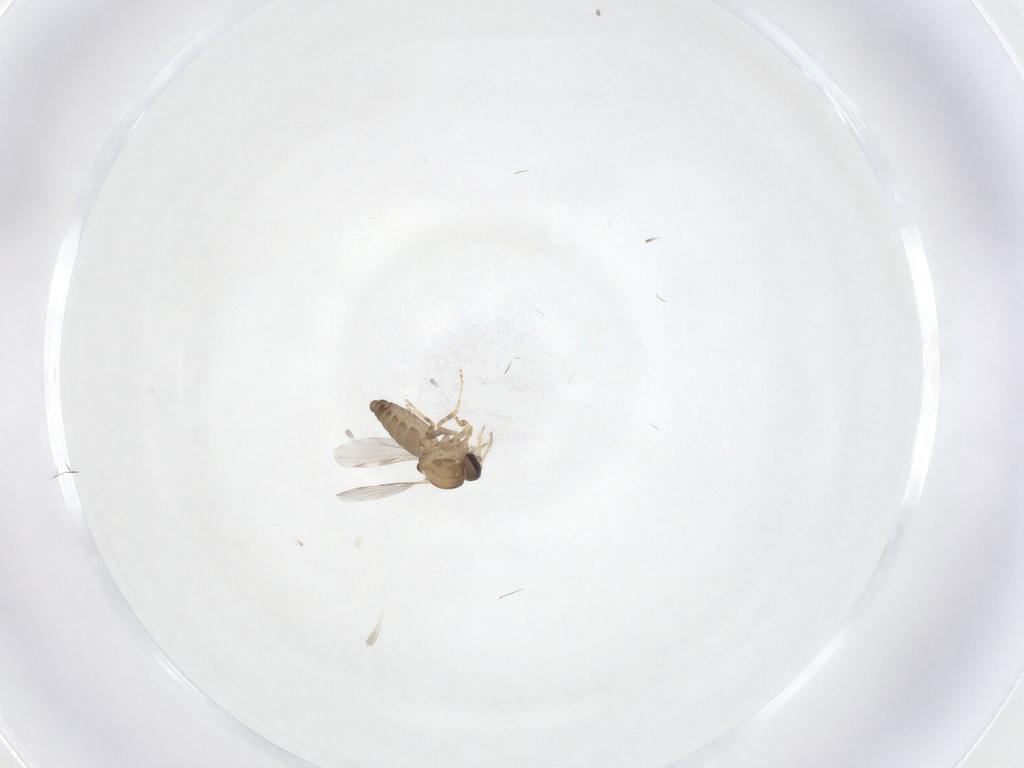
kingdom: Animalia
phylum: Arthropoda
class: Insecta
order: Diptera
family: Ceratopogonidae
